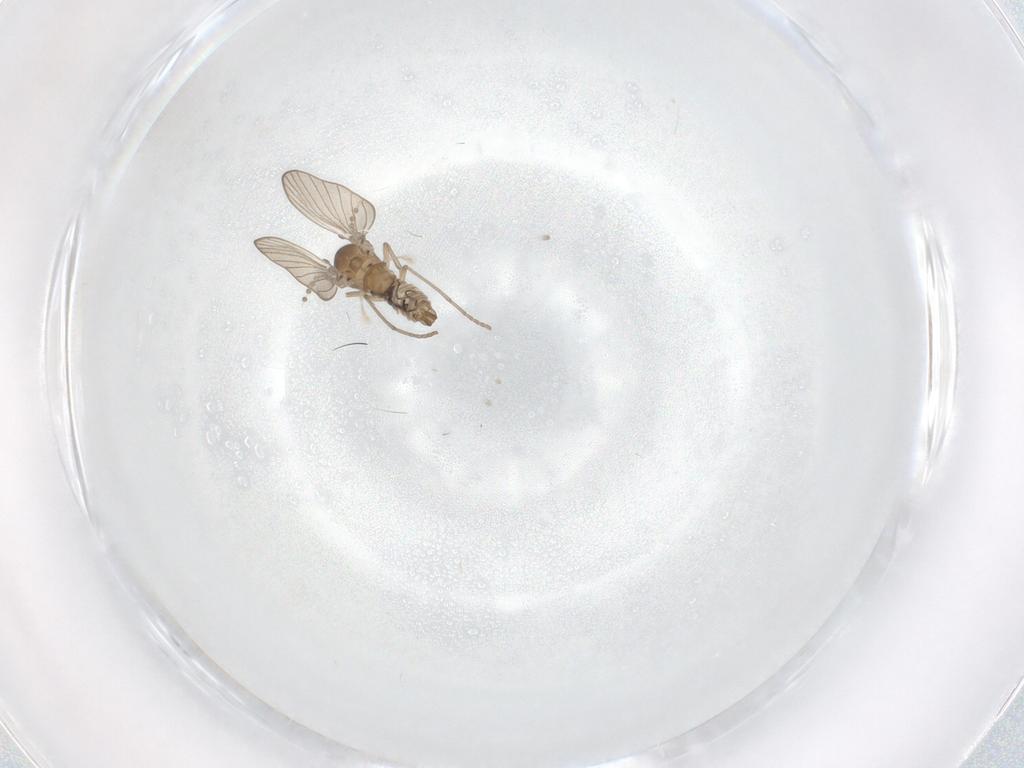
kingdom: Animalia
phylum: Arthropoda
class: Insecta
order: Diptera
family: Psychodidae
